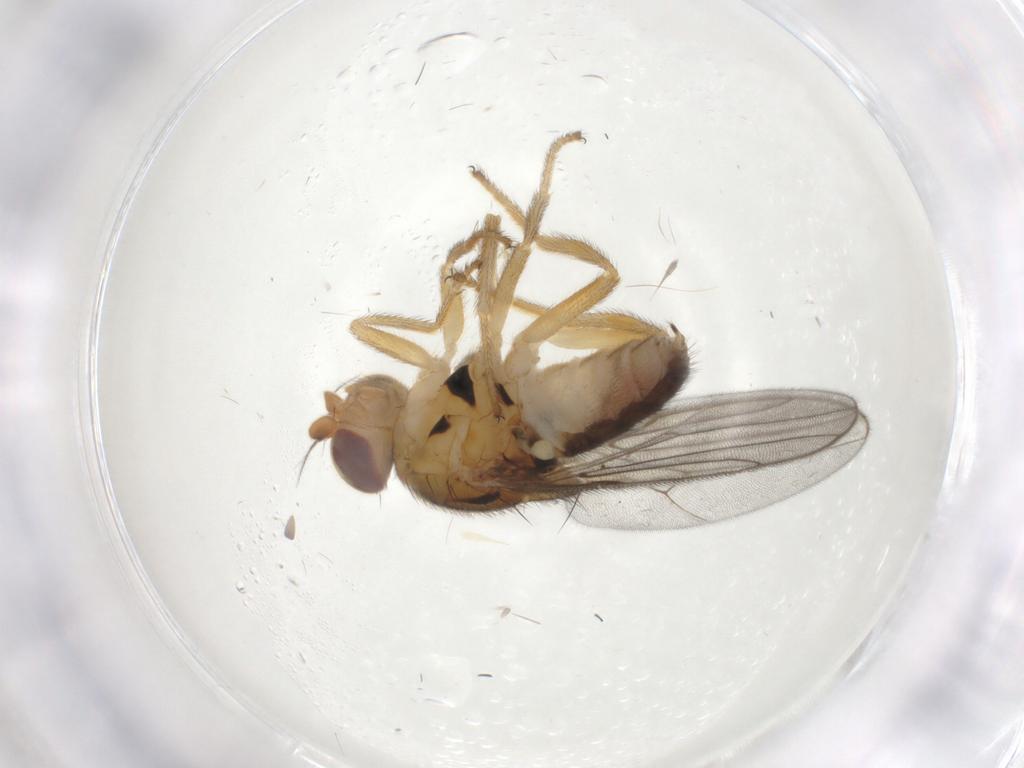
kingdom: Animalia
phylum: Arthropoda
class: Insecta
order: Diptera
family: Chloropidae
